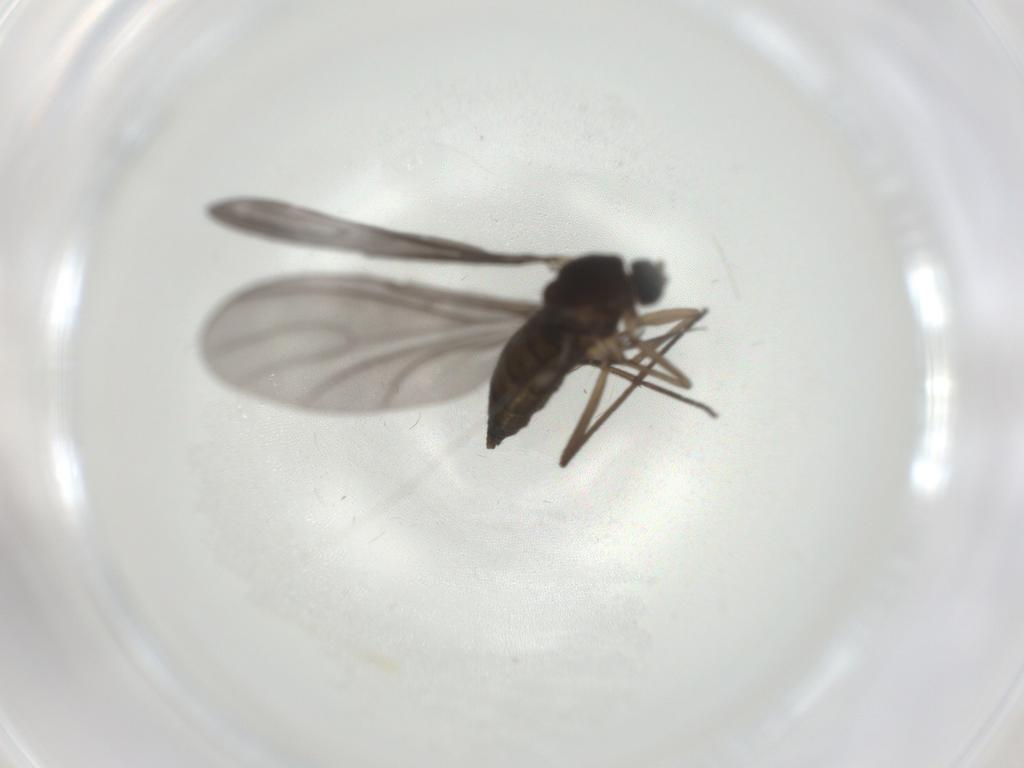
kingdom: Animalia
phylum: Arthropoda
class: Insecta
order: Diptera
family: Sciaridae
